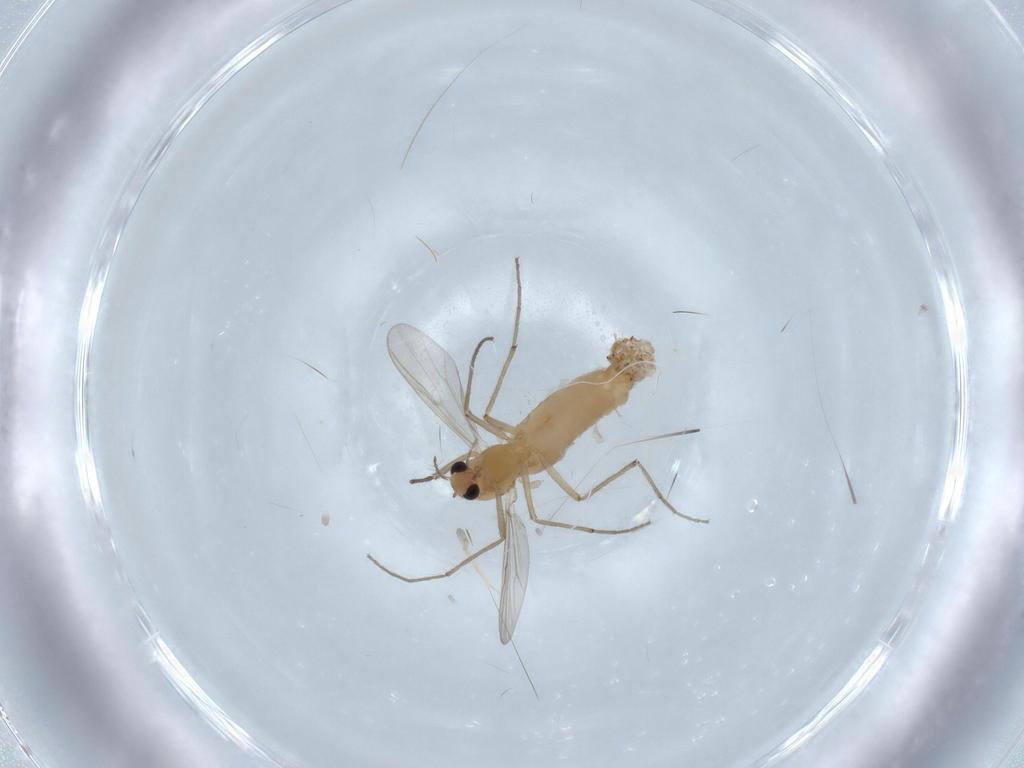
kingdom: Animalia
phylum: Arthropoda
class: Insecta
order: Diptera
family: Chironomidae
